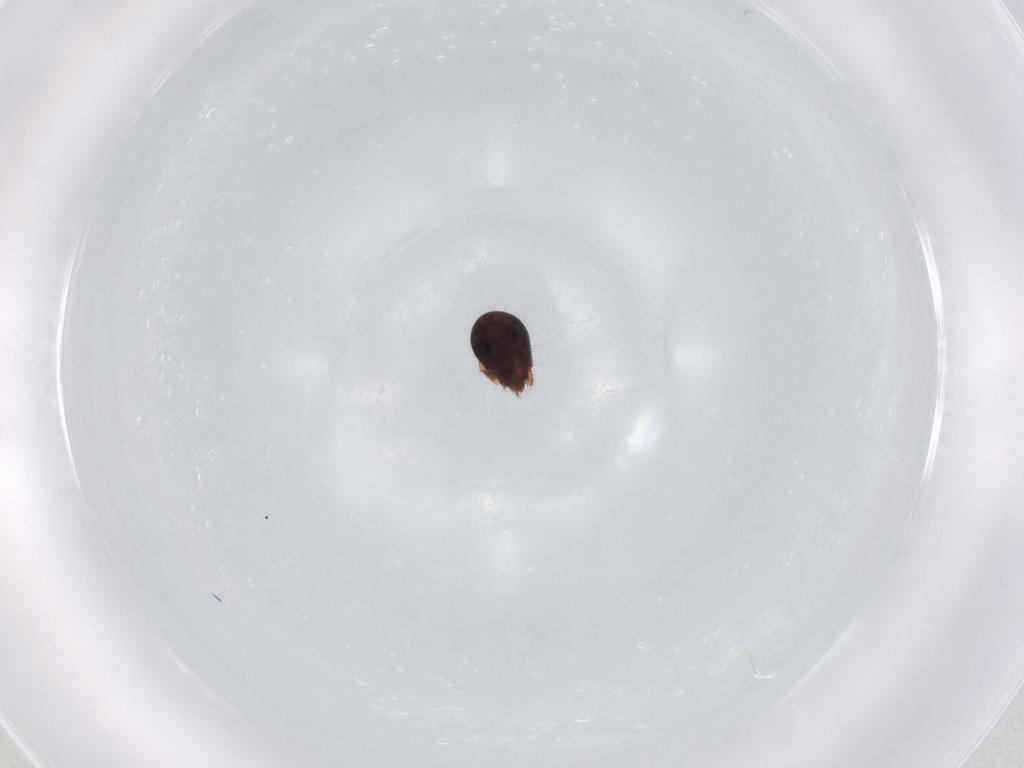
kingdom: Animalia
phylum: Arthropoda
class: Arachnida
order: Sarcoptiformes
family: Humerobatidae
